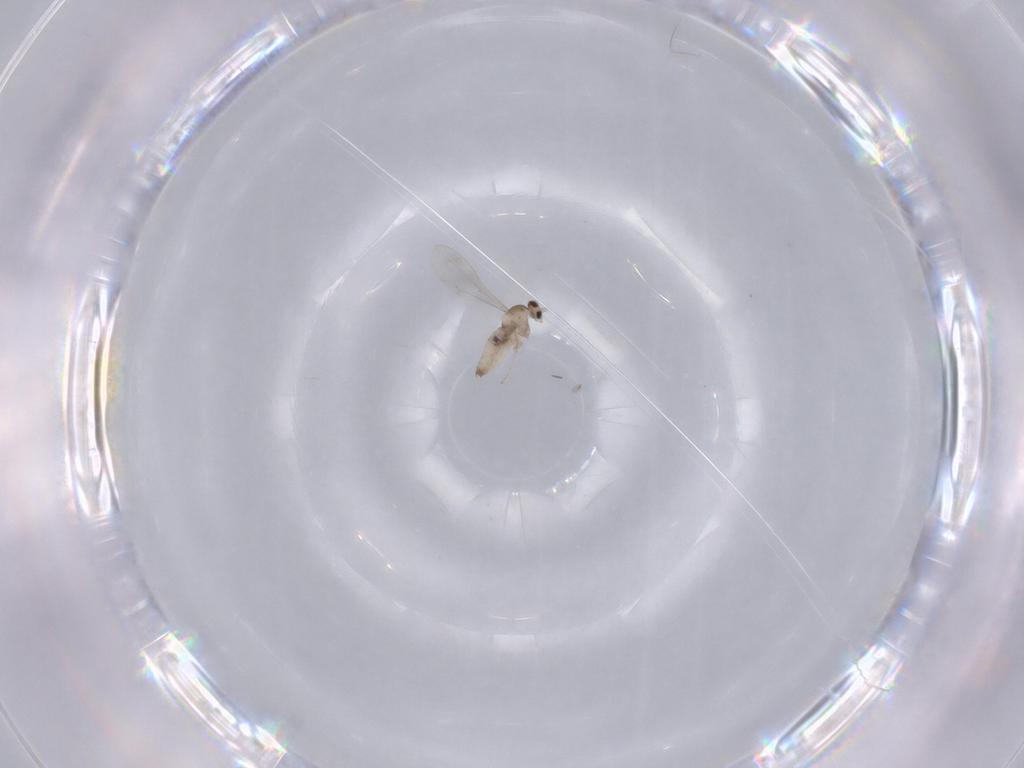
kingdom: Animalia
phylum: Arthropoda
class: Insecta
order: Diptera
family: Cecidomyiidae
